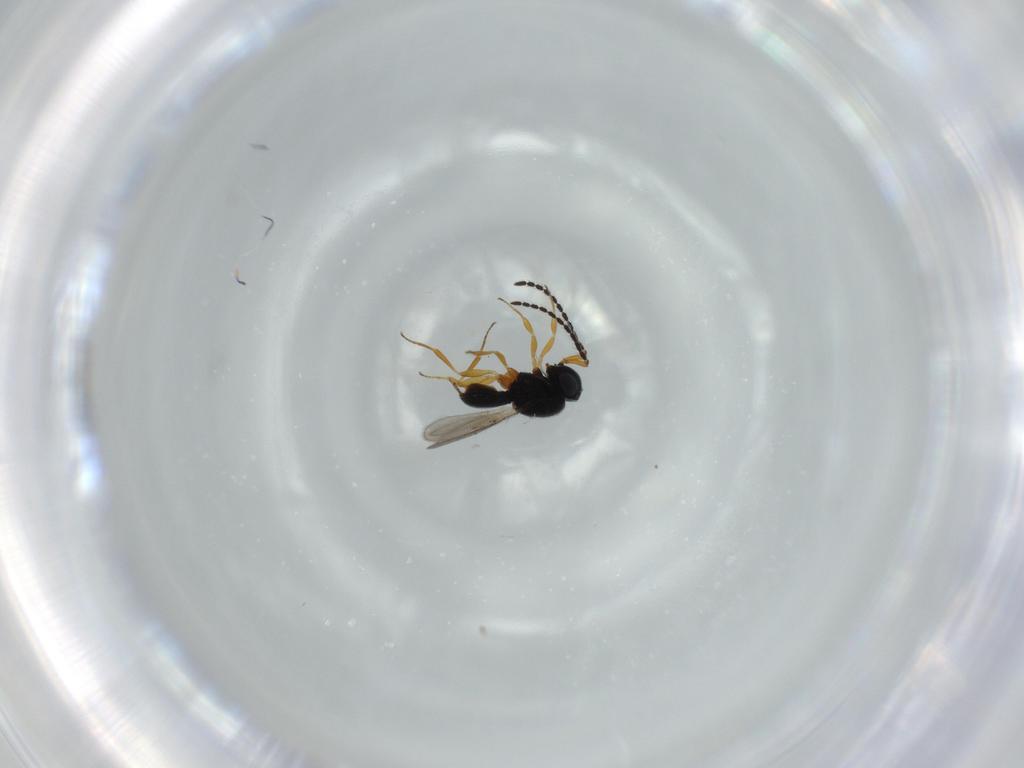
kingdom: Animalia
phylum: Arthropoda
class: Insecta
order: Hymenoptera
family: Scelionidae
